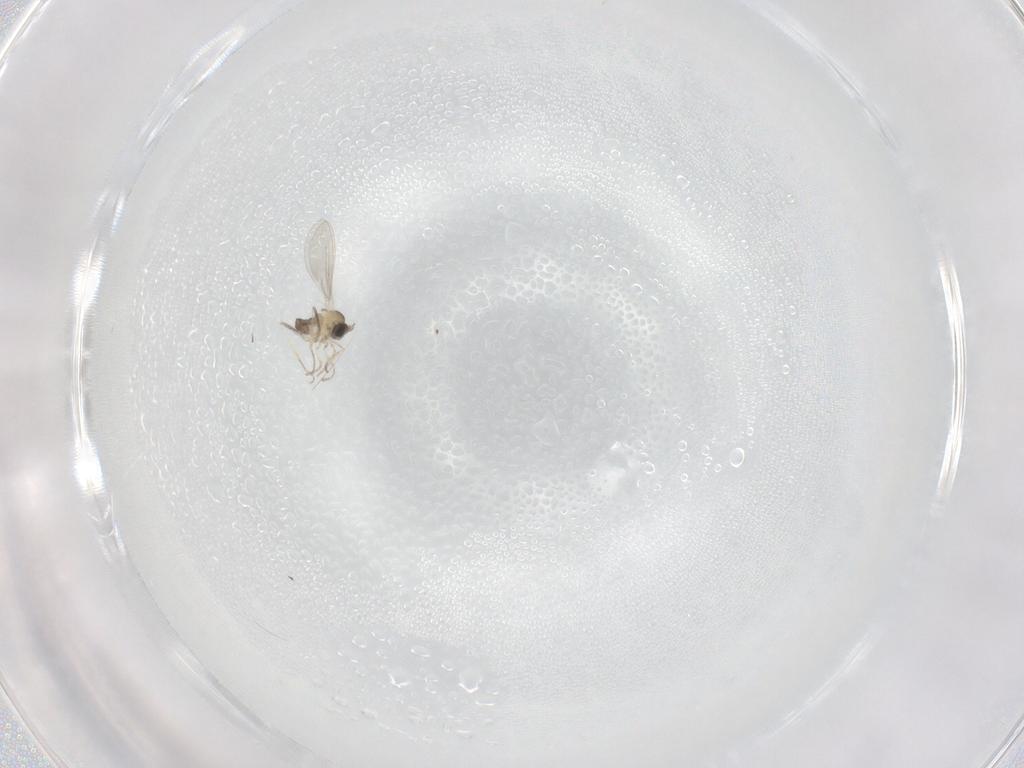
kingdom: Animalia
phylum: Arthropoda
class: Insecta
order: Diptera
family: Cecidomyiidae
